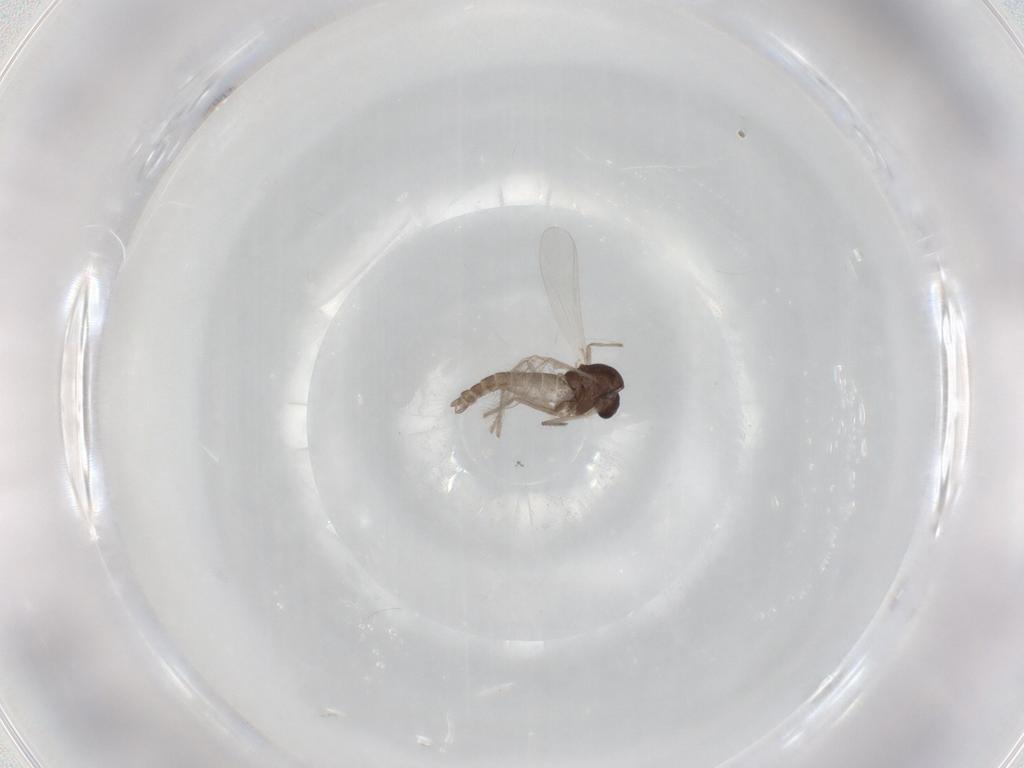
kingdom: Animalia
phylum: Arthropoda
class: Insecta
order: Diptera
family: Chironomidae
